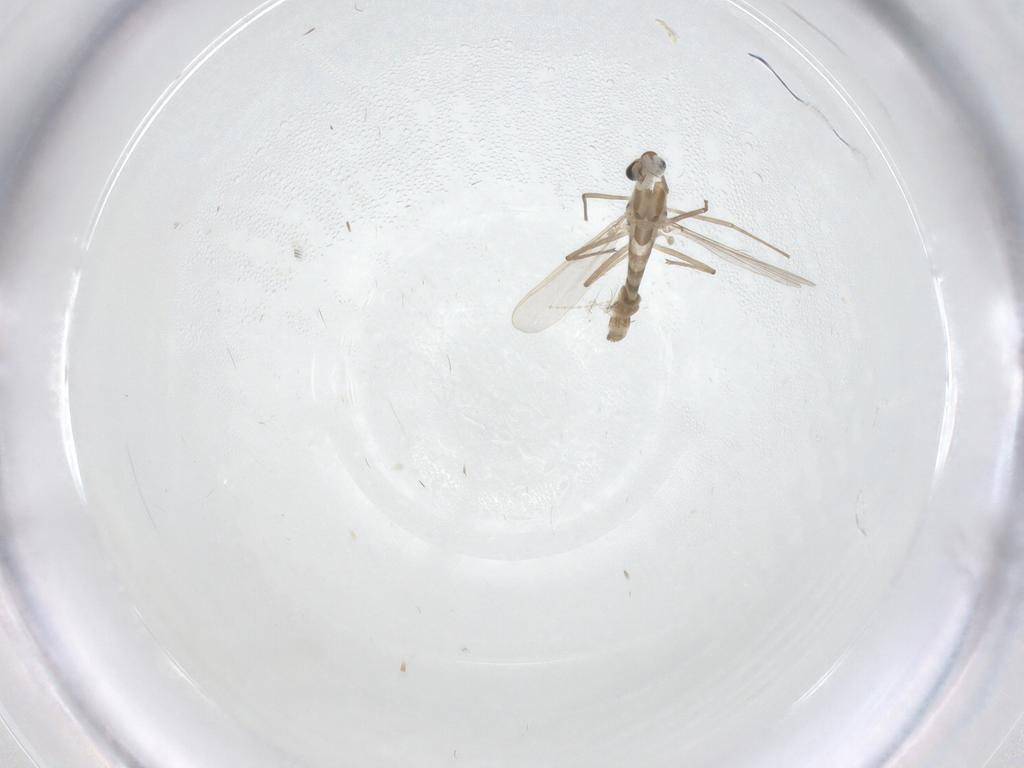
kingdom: Animalia
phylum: Arthropoda
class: Insecta
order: Diptera
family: Chironomidae
